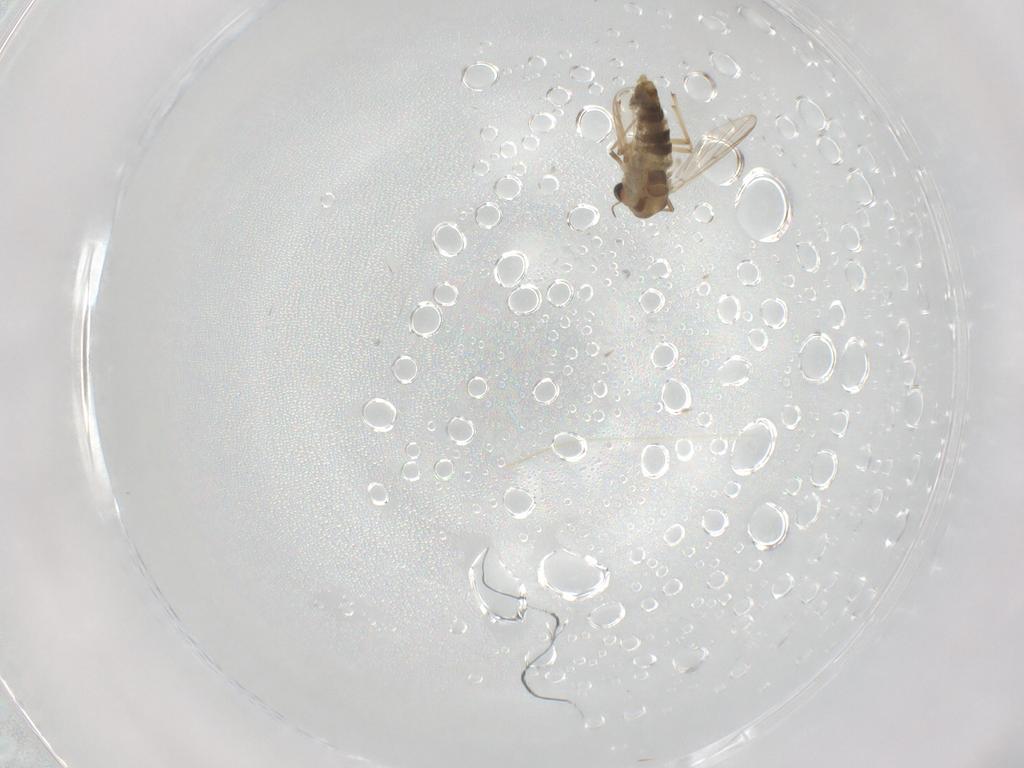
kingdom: Animalia
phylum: Arthropoda
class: Insecta
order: Diptera
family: Chironomidae
